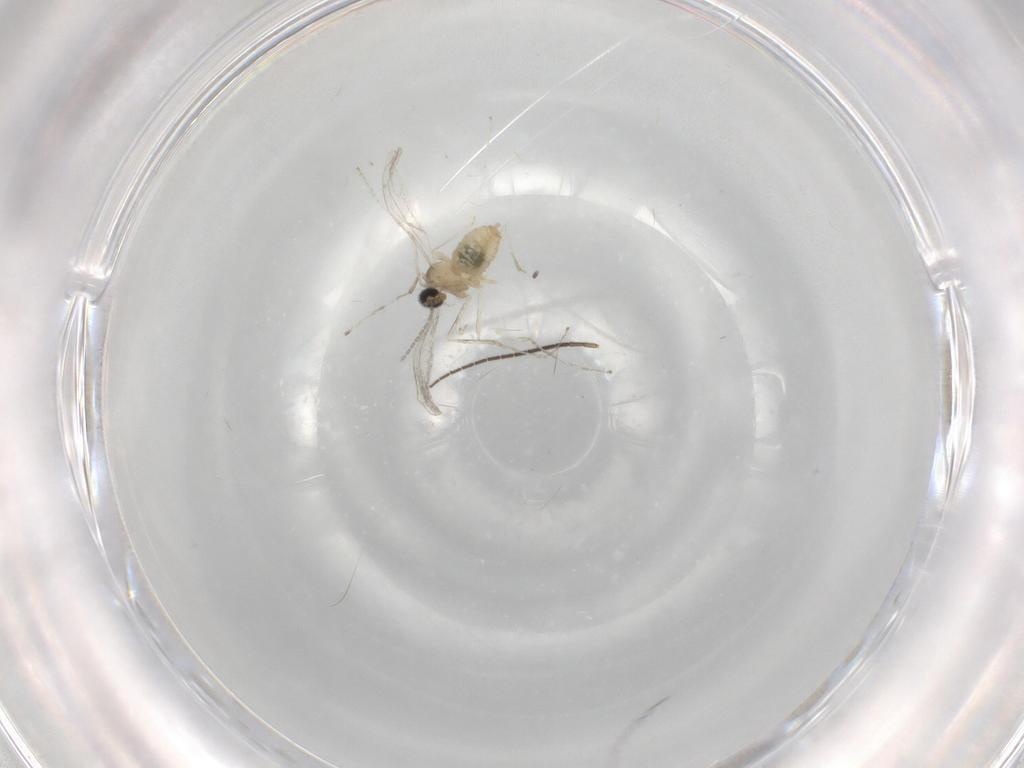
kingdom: Animalia
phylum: Arthropoda
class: Insecta
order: Diptera
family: Cecidomyiidae
